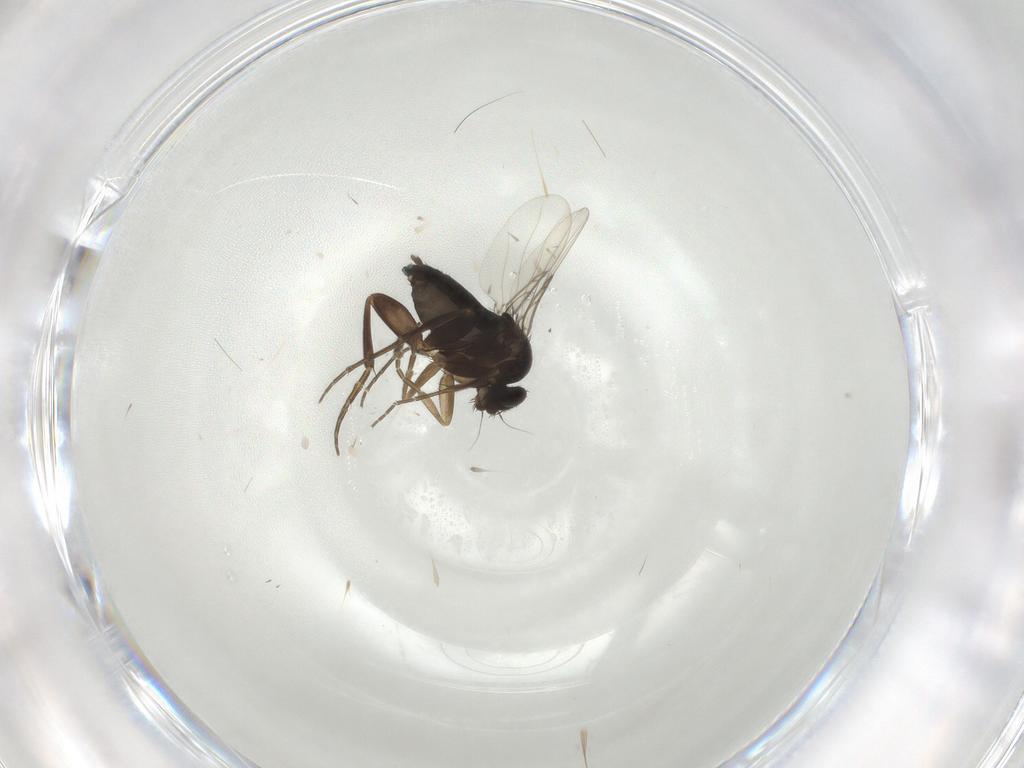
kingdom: Animalia
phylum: Arthropoda
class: Insecta
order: Diptera
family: Phoridae
